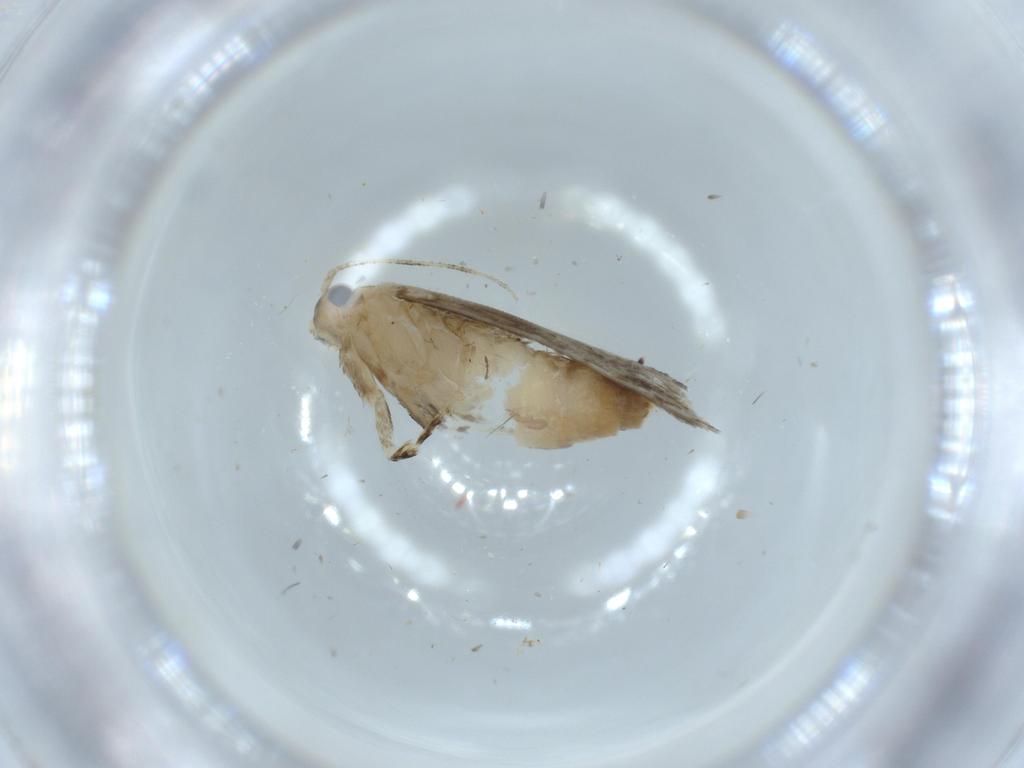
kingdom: Animalia
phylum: Arthropoda
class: Insecta
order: Lepidoptera
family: Tineidae
